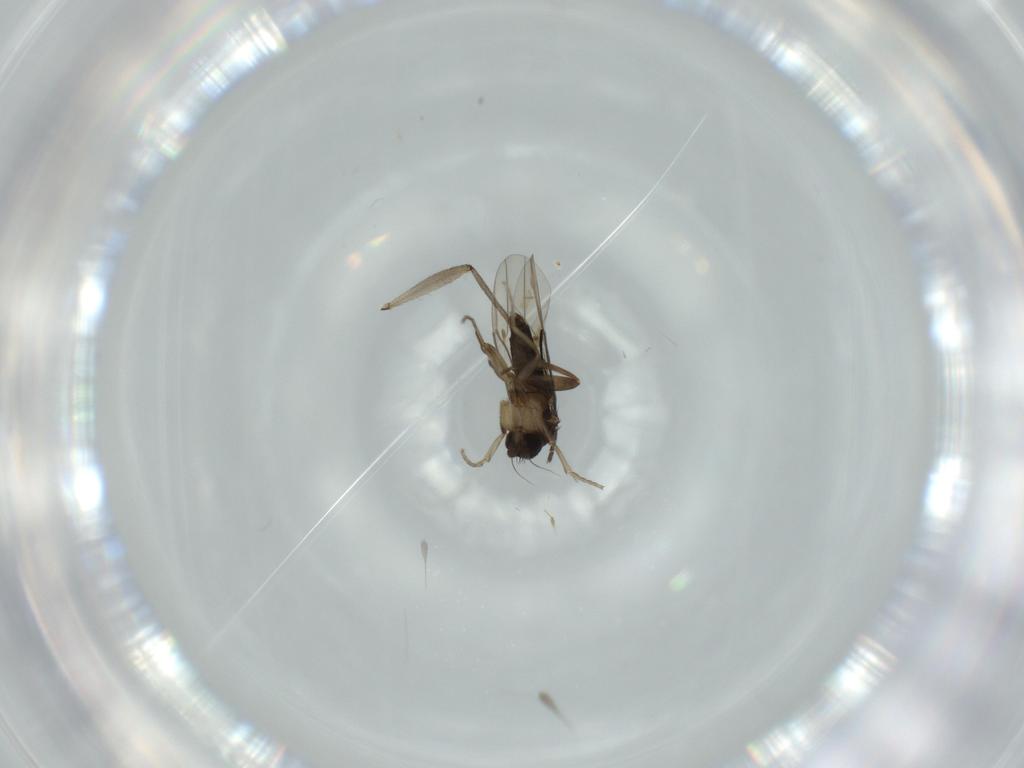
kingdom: Animalia
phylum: Arthropoda
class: Insecta
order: Diptera
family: Phoridae
